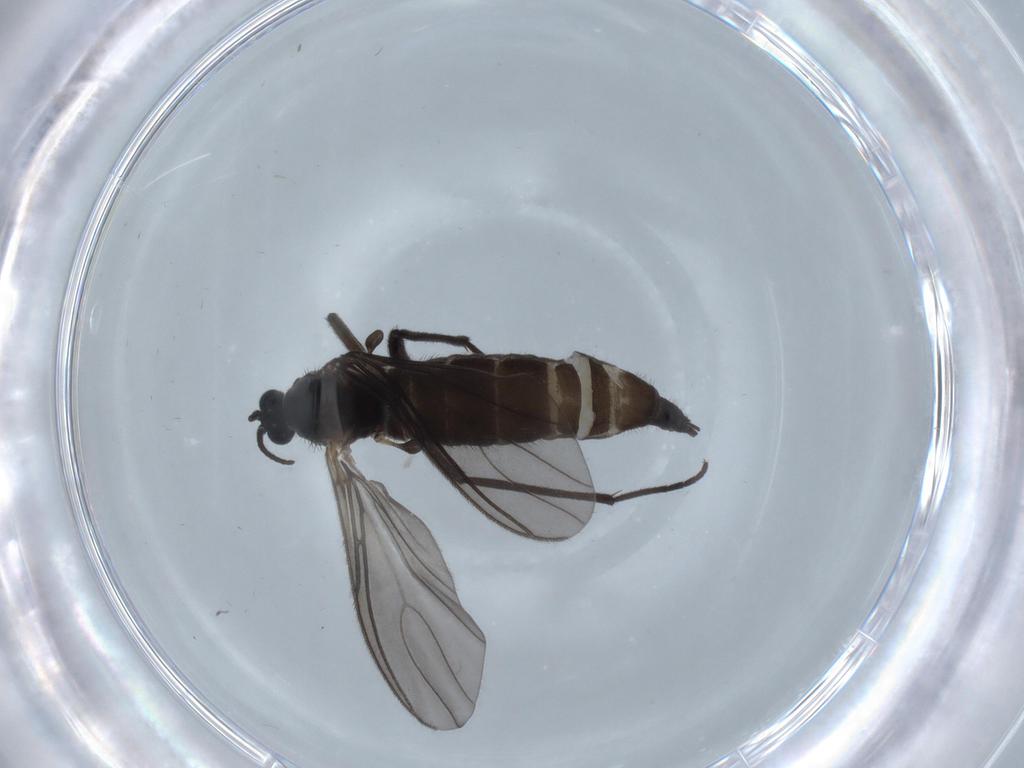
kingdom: Animalia
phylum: Arthropoda
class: Insecta
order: Diptera
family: Sciaridae
